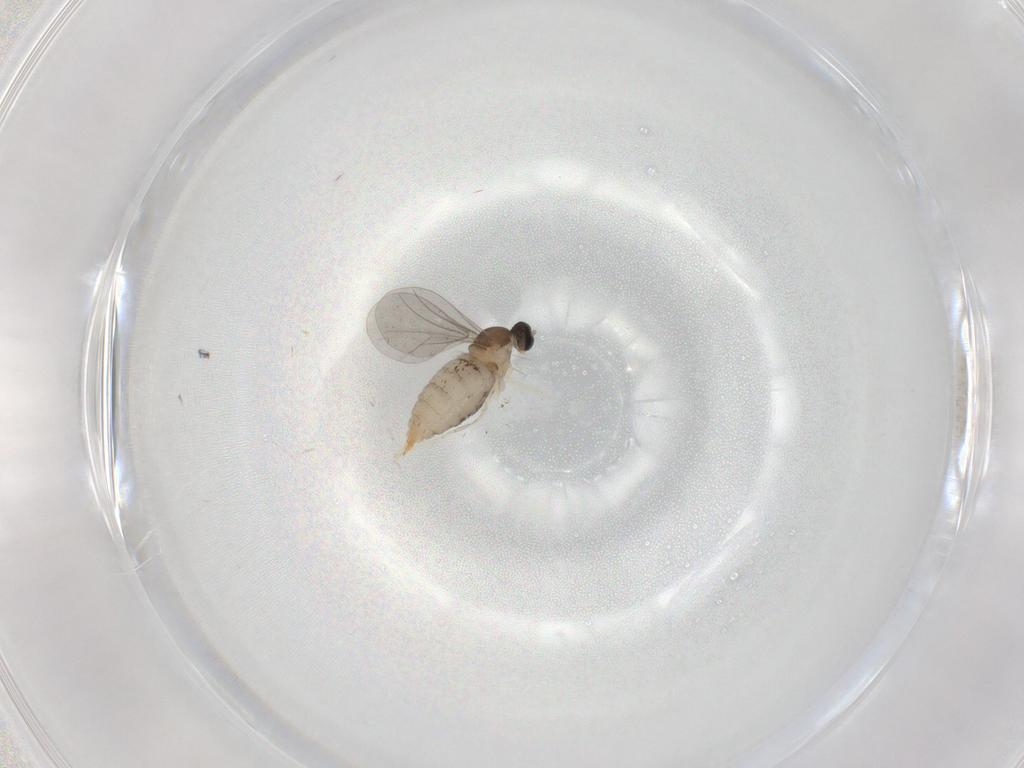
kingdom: Animalia
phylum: Arthropoda
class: Insecta
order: Diptera
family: Cecidomyiidae
